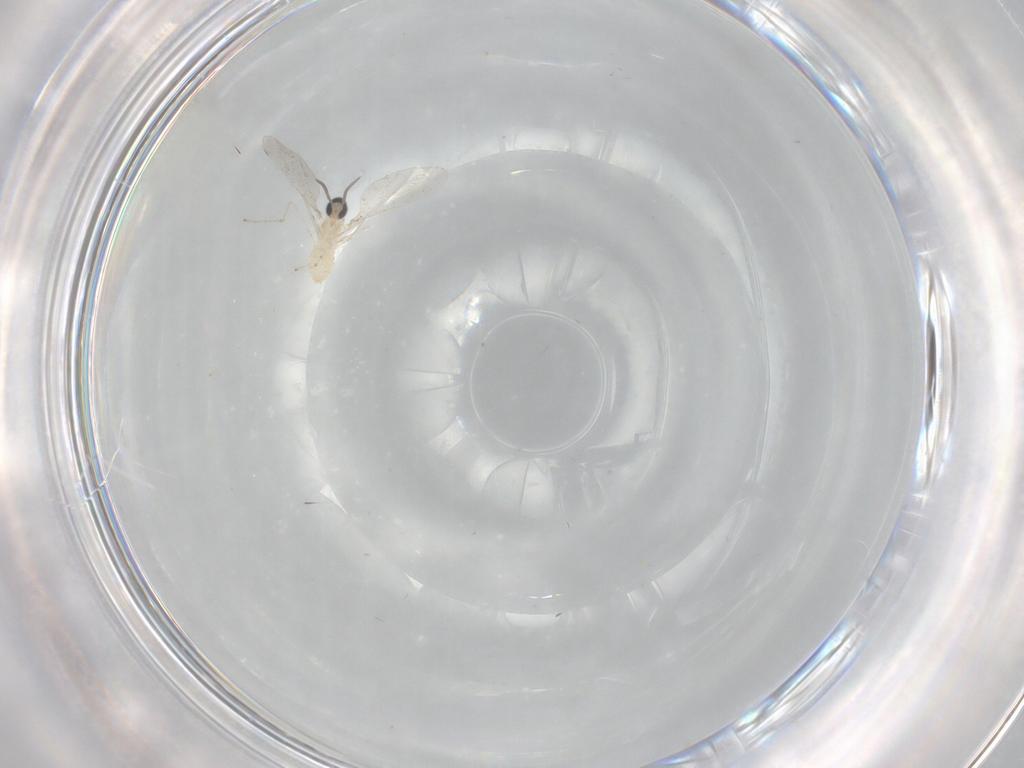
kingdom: Animalia
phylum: Arthropoda
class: Insecta
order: Diptera
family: Cecidomyiidae
